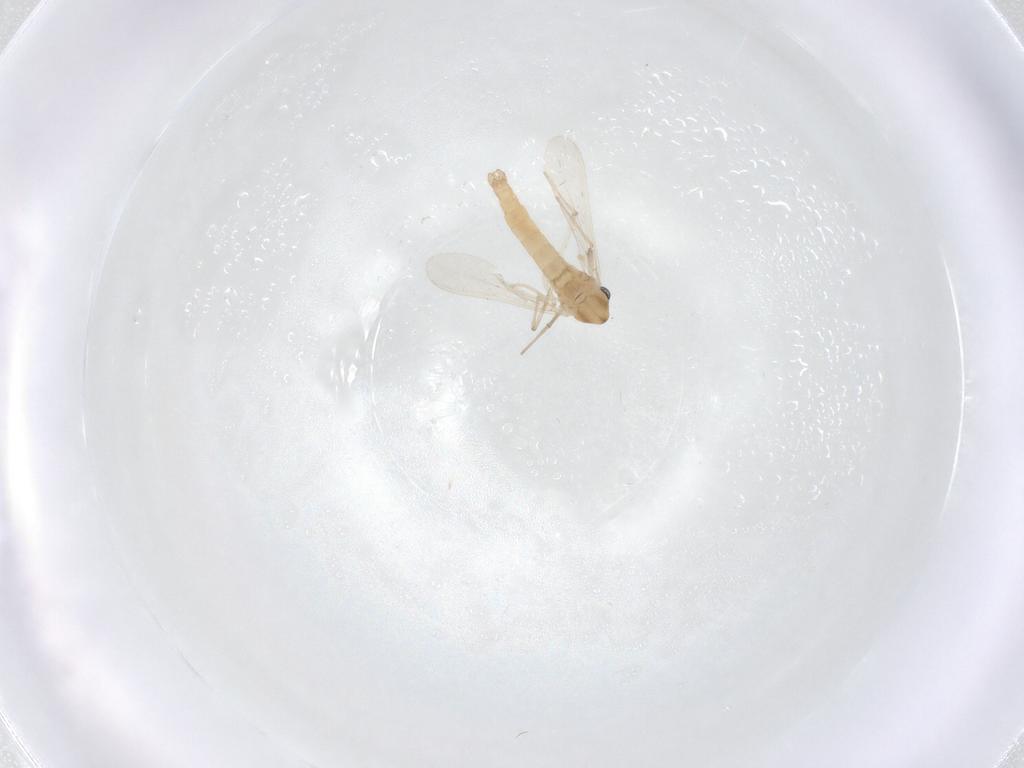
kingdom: Animalia
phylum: Arthropoda
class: Insecta
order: Diptera
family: Chironomidae
